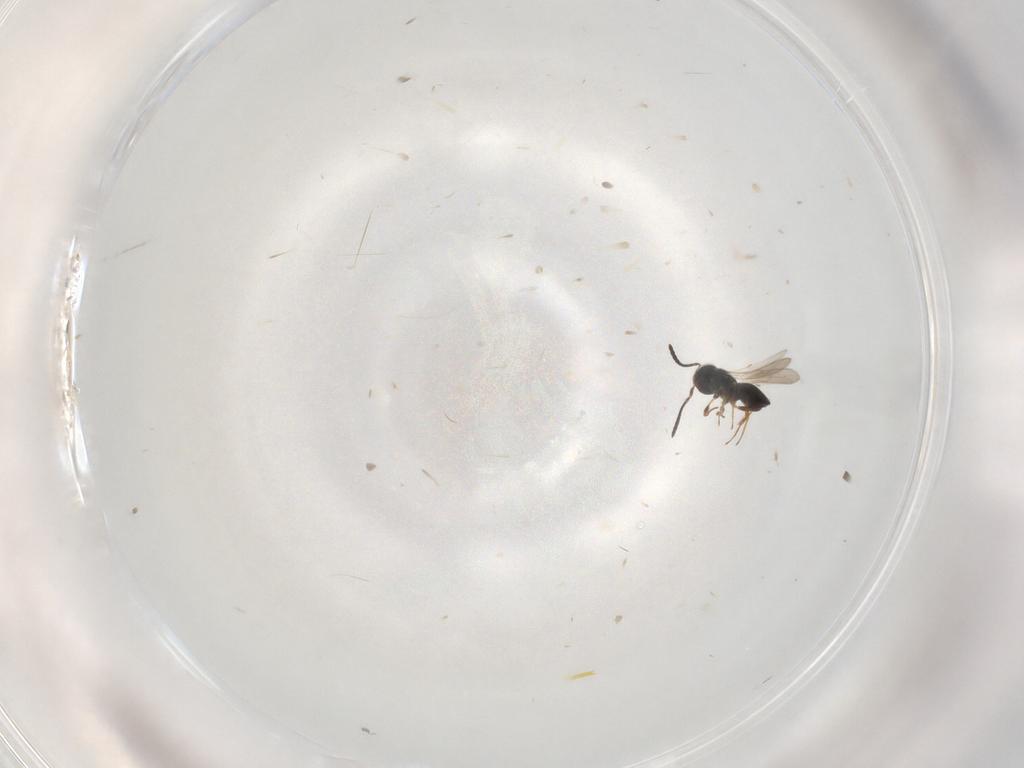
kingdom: Animalia
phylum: Arthropoda
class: Insecta
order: Hymenoptera
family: Scelionidae
